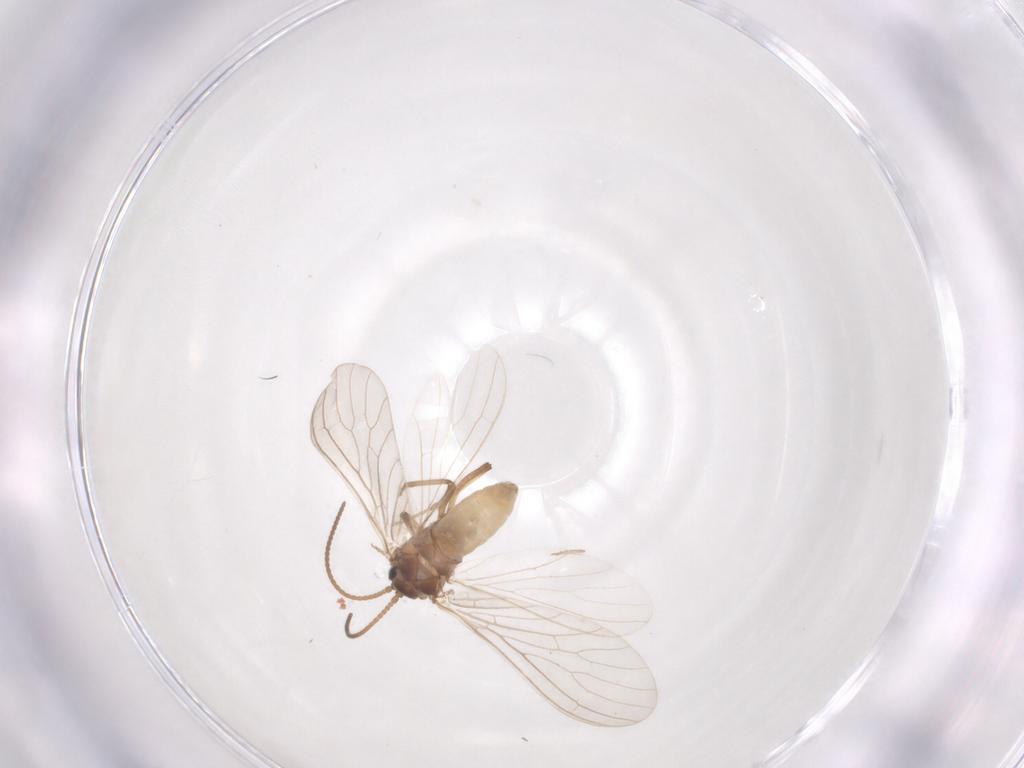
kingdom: Animalia
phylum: Arthropoda
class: Insecta
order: Neuroptera
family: Coniopterygidae
